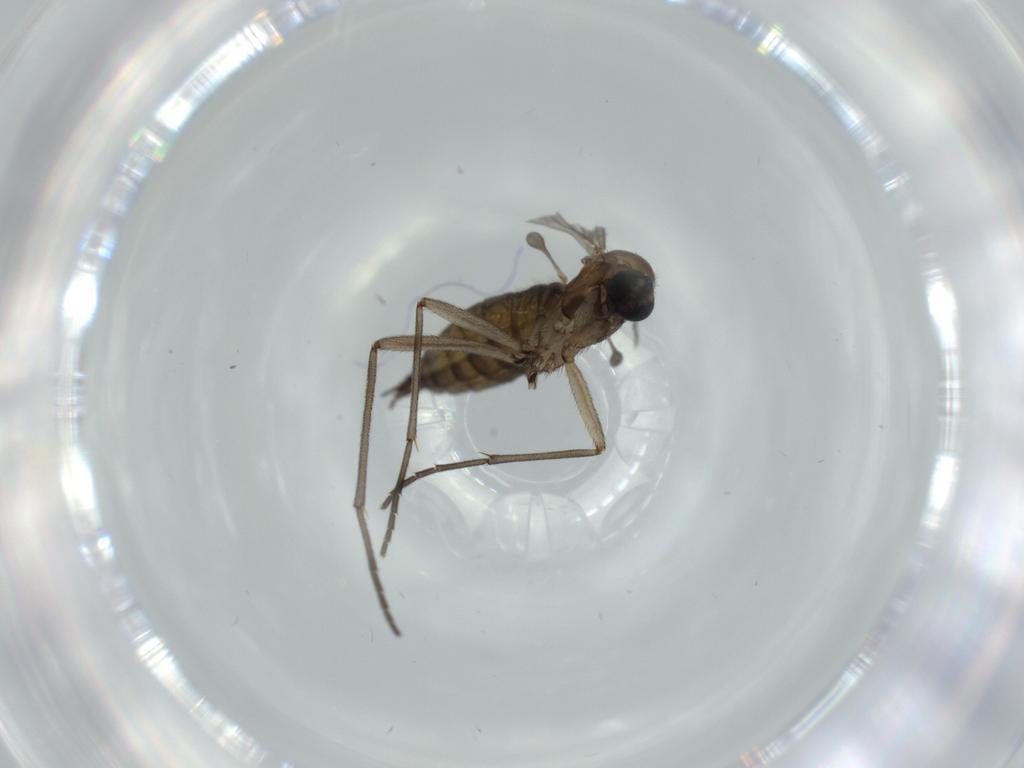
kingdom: Animalia
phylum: Arthropoda
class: Insecta
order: Diptera
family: Sciaridae
